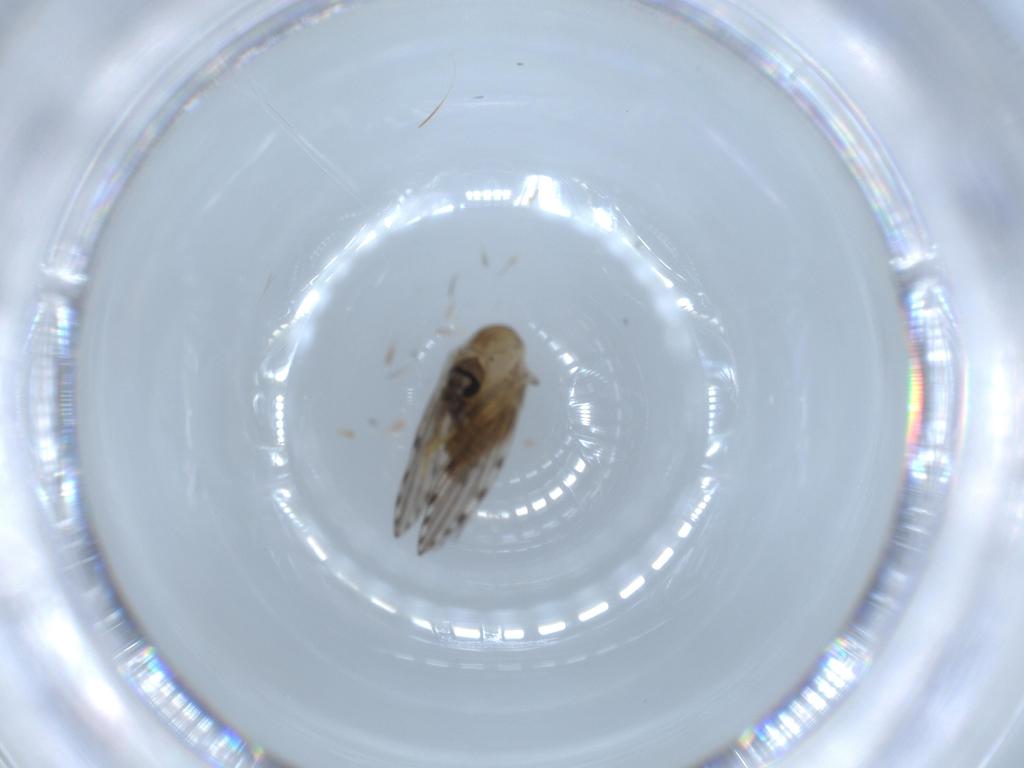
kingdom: Animalia
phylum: Arthropoda
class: Insecta
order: Diptera
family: Psychodidae
